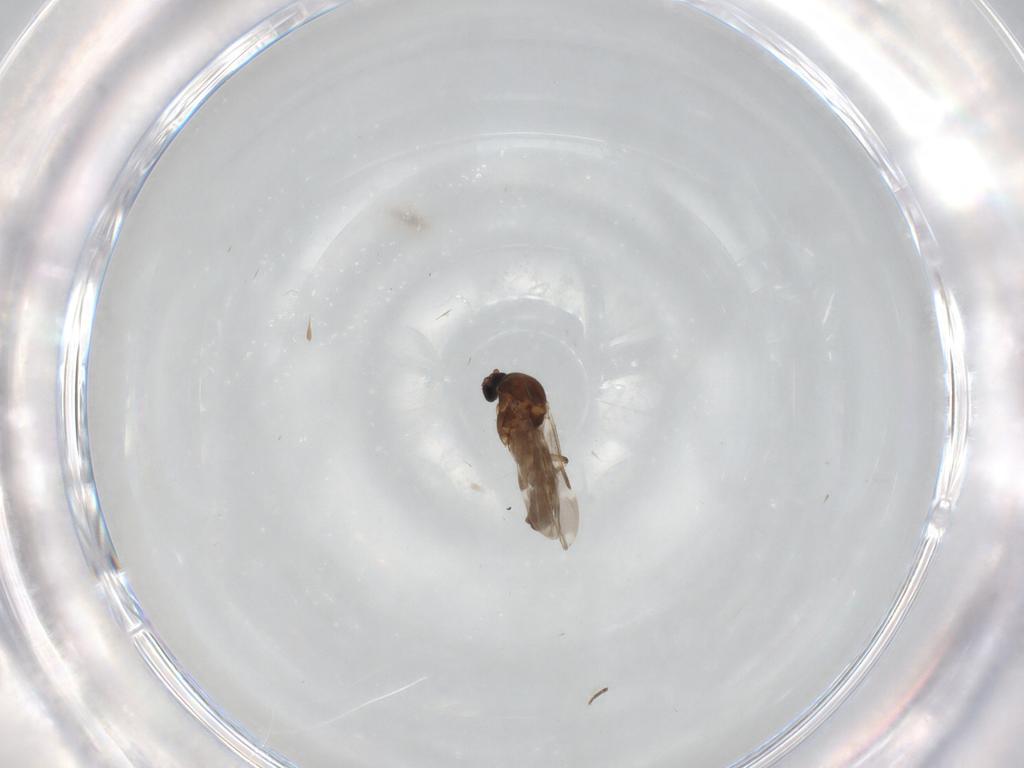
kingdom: Animalia
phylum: Arthropoda
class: Insecta
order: Diptera
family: Ceratopogonidae
